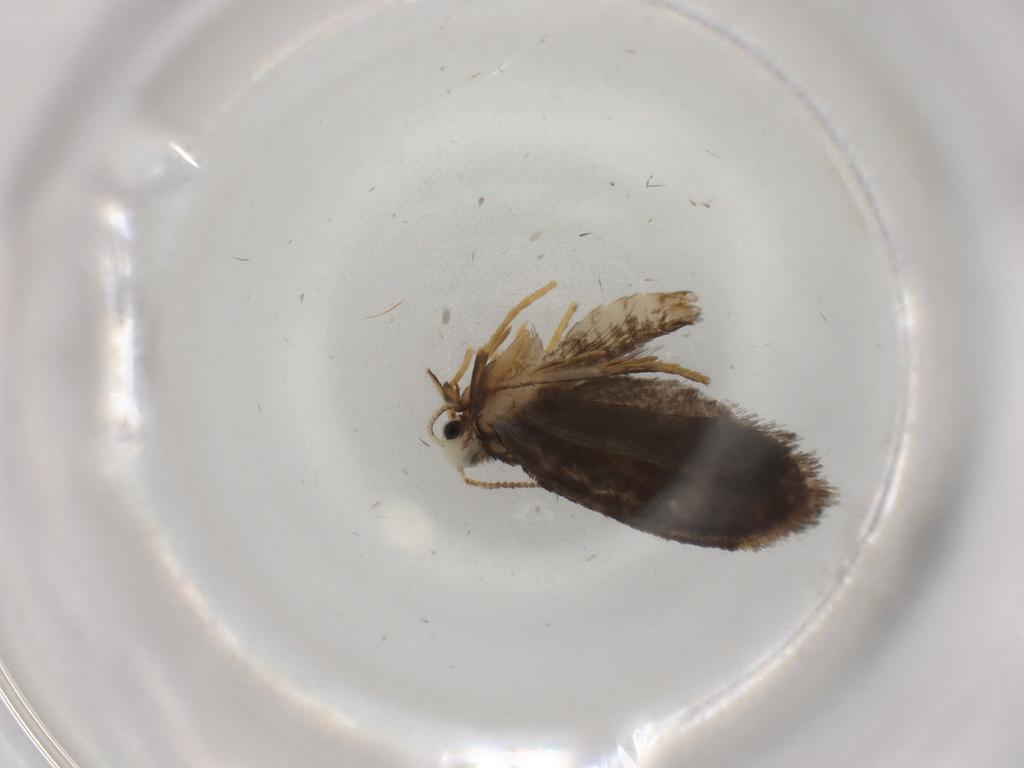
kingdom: Animalia
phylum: Arthropoda
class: Insecta
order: Lepidoptera
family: Psychidae
